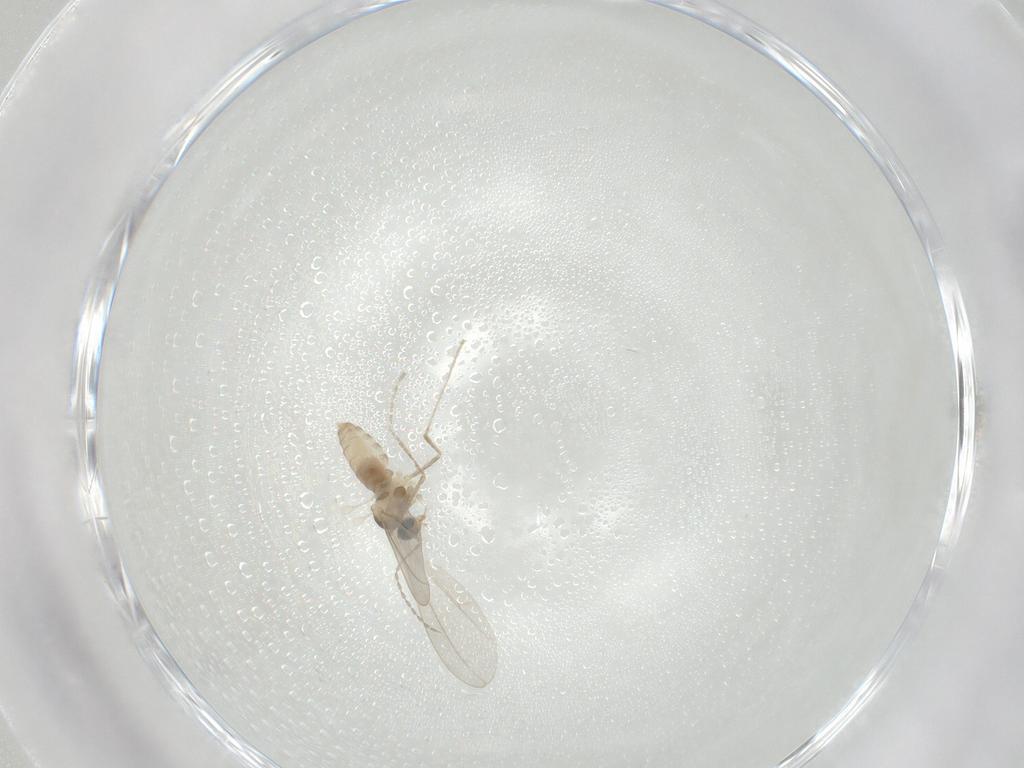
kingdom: Animalia
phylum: Arthropoda
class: Insecta
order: Diptera
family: Cecidomyiidae
